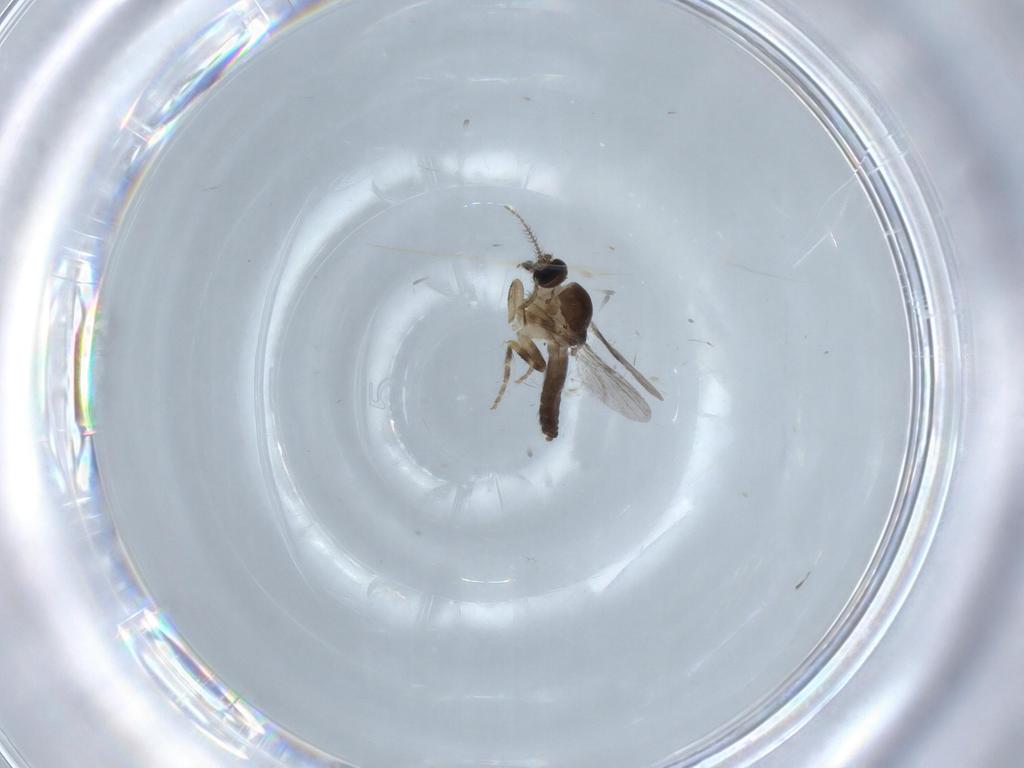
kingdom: Animalia
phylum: Arthropoda
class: Insecta
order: Diptera
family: Ceratopogonidae
